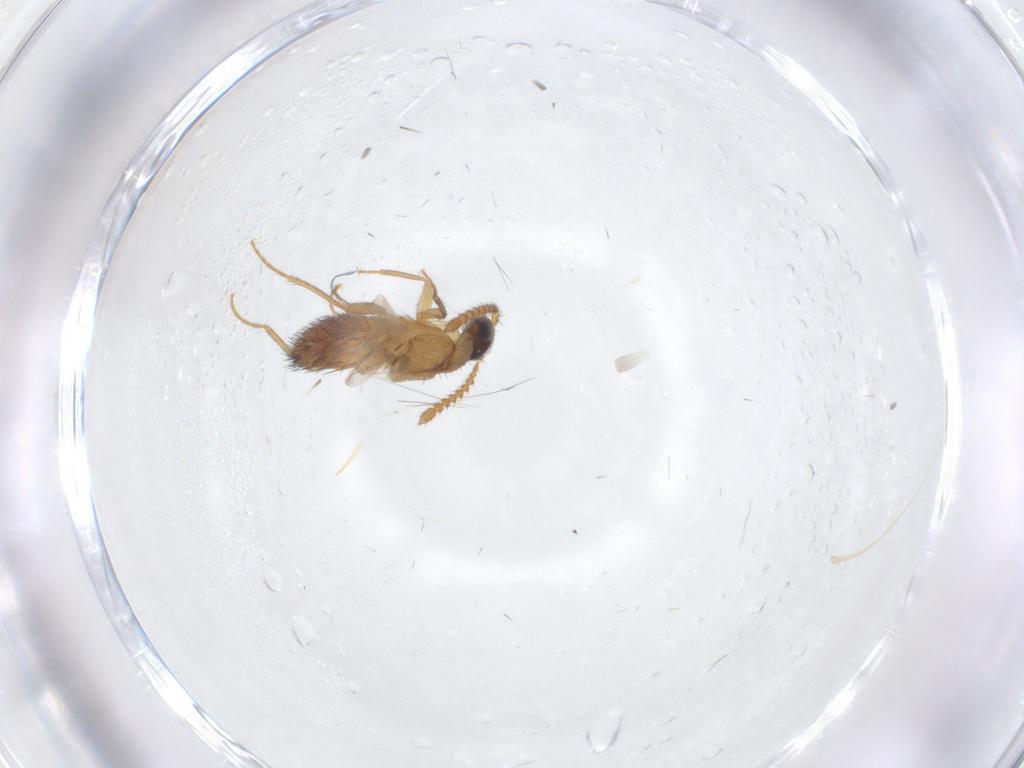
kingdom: Animalia
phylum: Arthropoda
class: Insecta
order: Coleoptera
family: Staphylinidae
